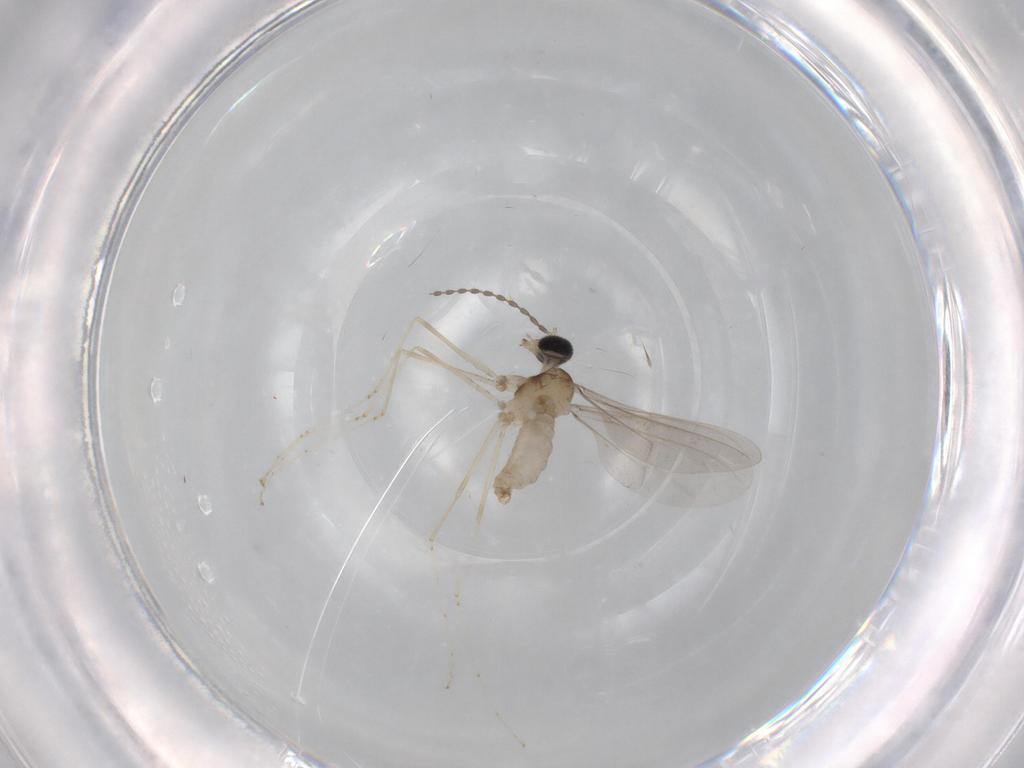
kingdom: Animalia
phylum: Arthropoda
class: Insecta
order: Diptera
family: Cecidomyiidae
